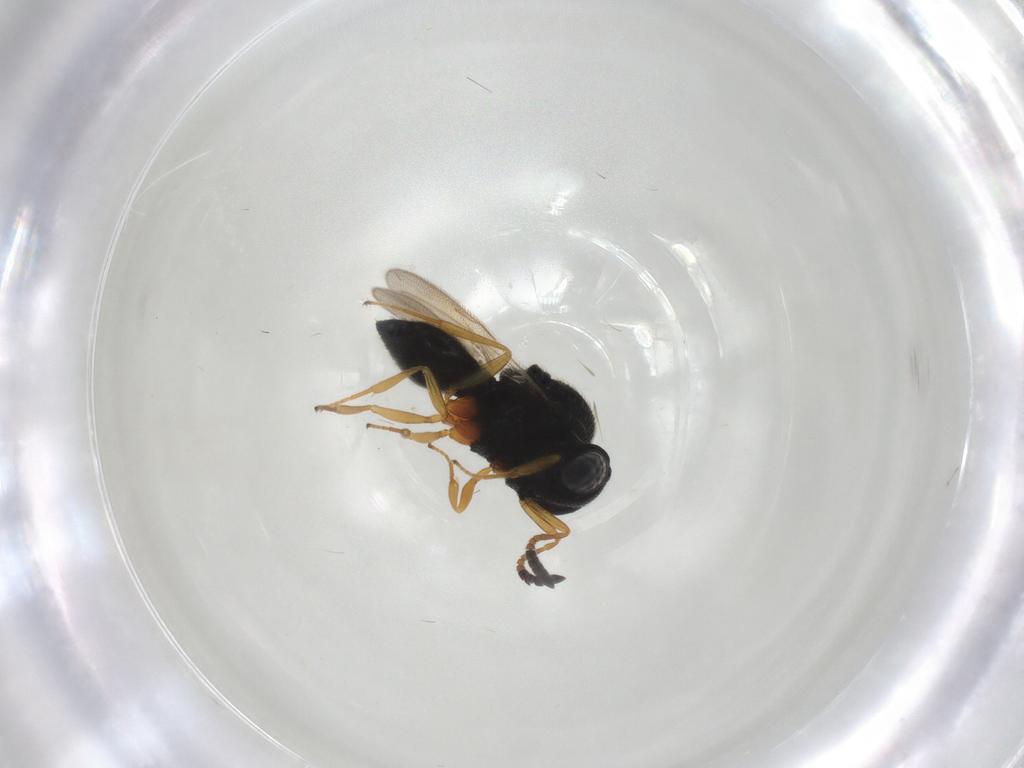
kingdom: Animalia
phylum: Arthropoda
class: Insecta
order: Hymenoptera
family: Scelionidae
